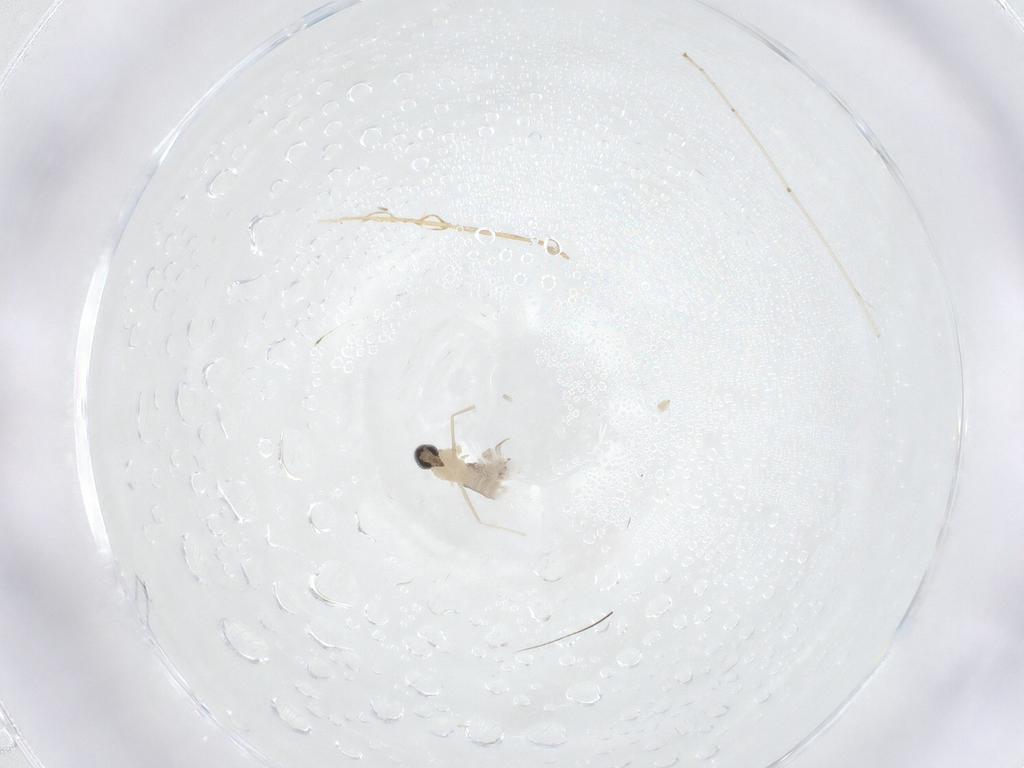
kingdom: Animalia
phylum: Arthropoda
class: Insecta
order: Diptera
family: Cecidomyiidae
